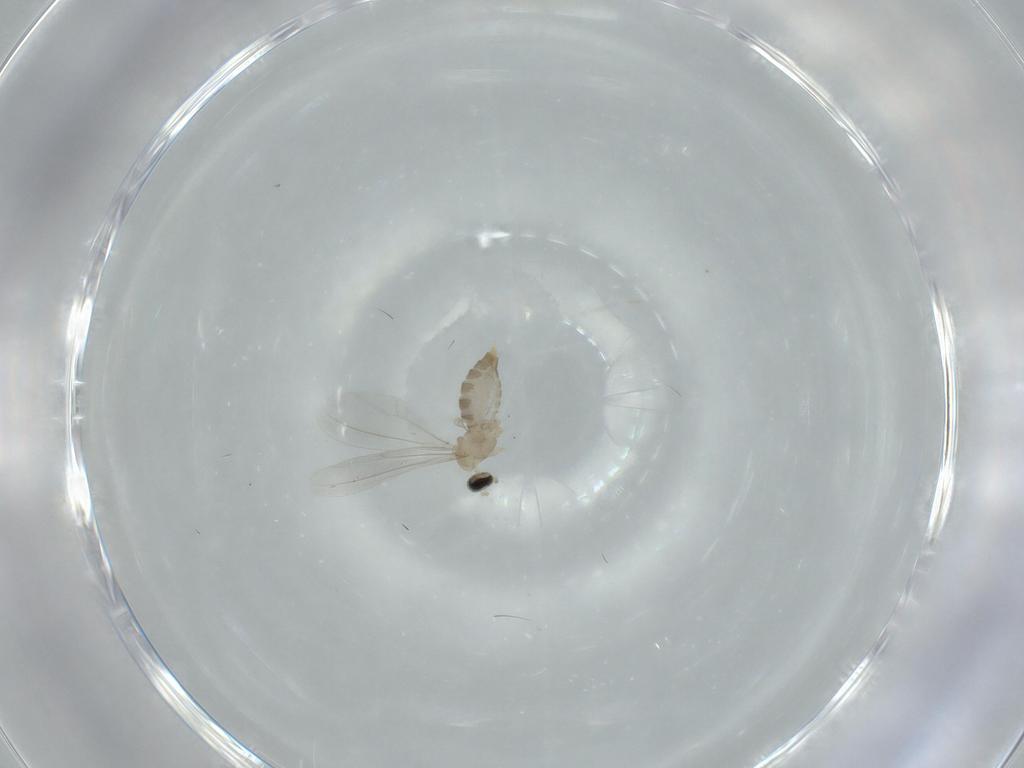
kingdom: Animalia
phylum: Arthropoda
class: Insecta
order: Diptera
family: Cecidomyiidae
